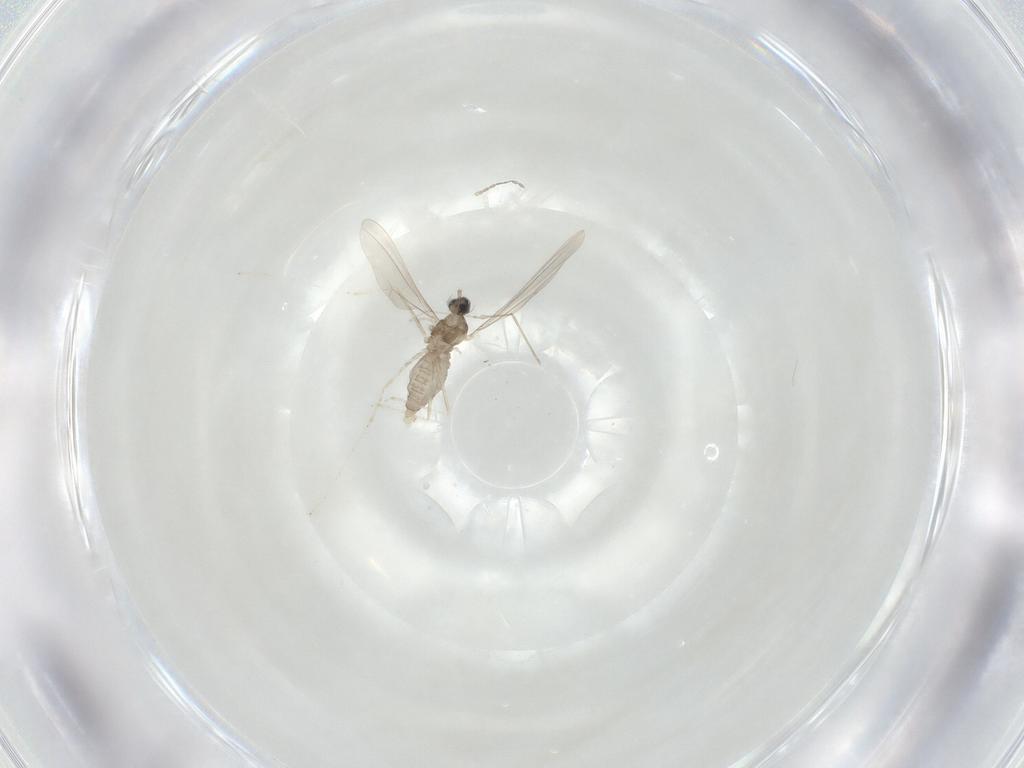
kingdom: Animalia
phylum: Arthropoda
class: Insecta
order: Diptera
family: Cecidomyiidae
